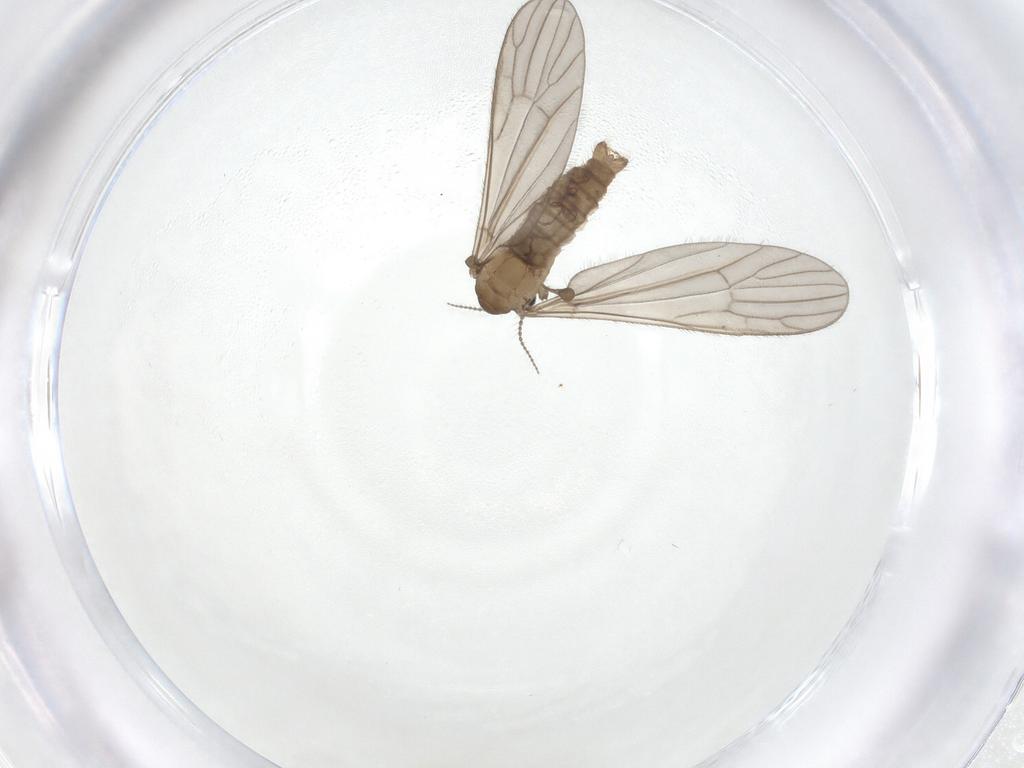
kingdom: Animalia
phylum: Arthropoda
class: Insecta
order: Diptera
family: Limoniidae
